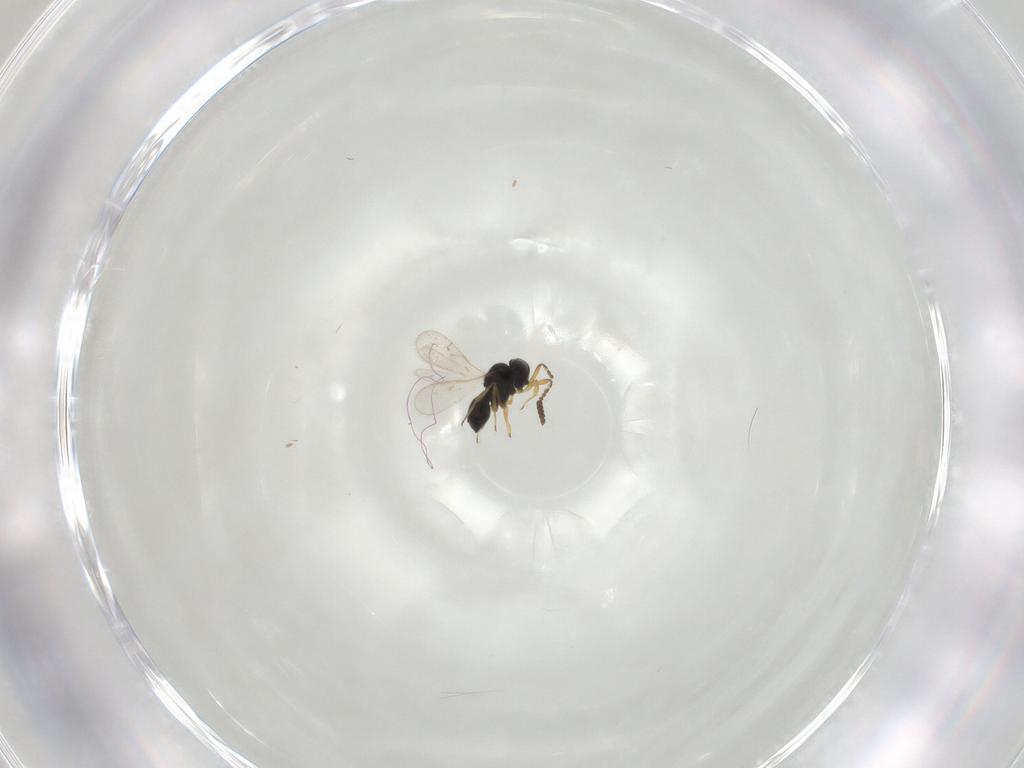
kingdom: Animalia
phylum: Arthropoda
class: Insecta
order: Hymenoptera
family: Scelionidae
